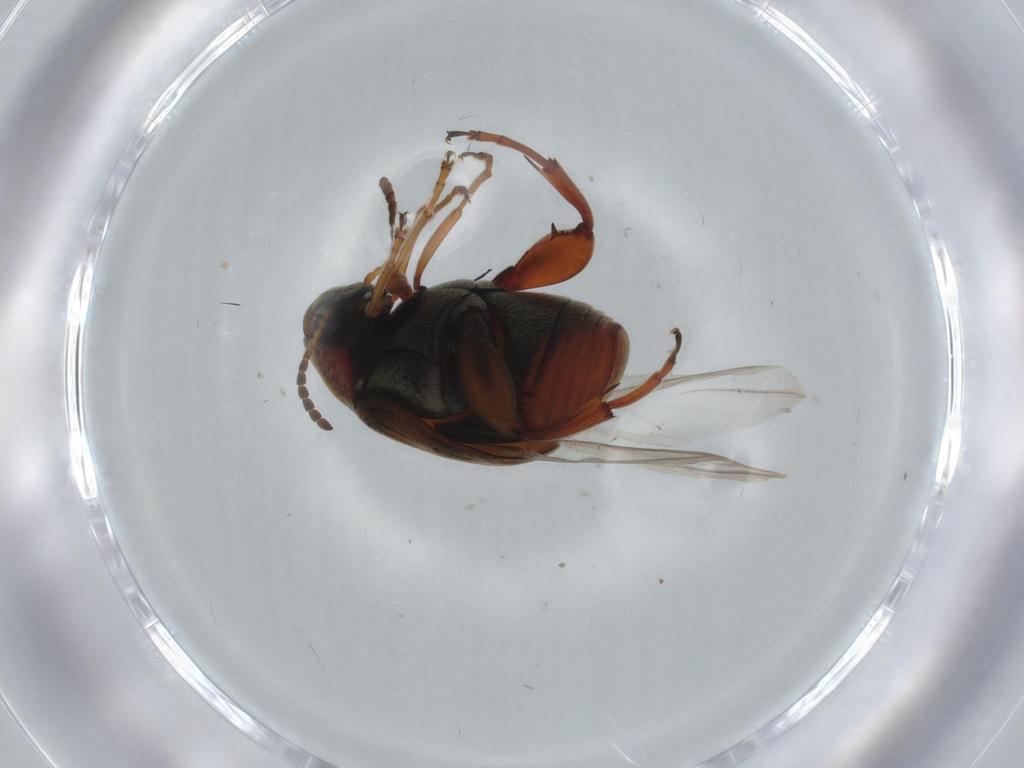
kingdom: Animalia
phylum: Arthropoda
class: Insecta
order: Coleoptera
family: Chrysomelidae
